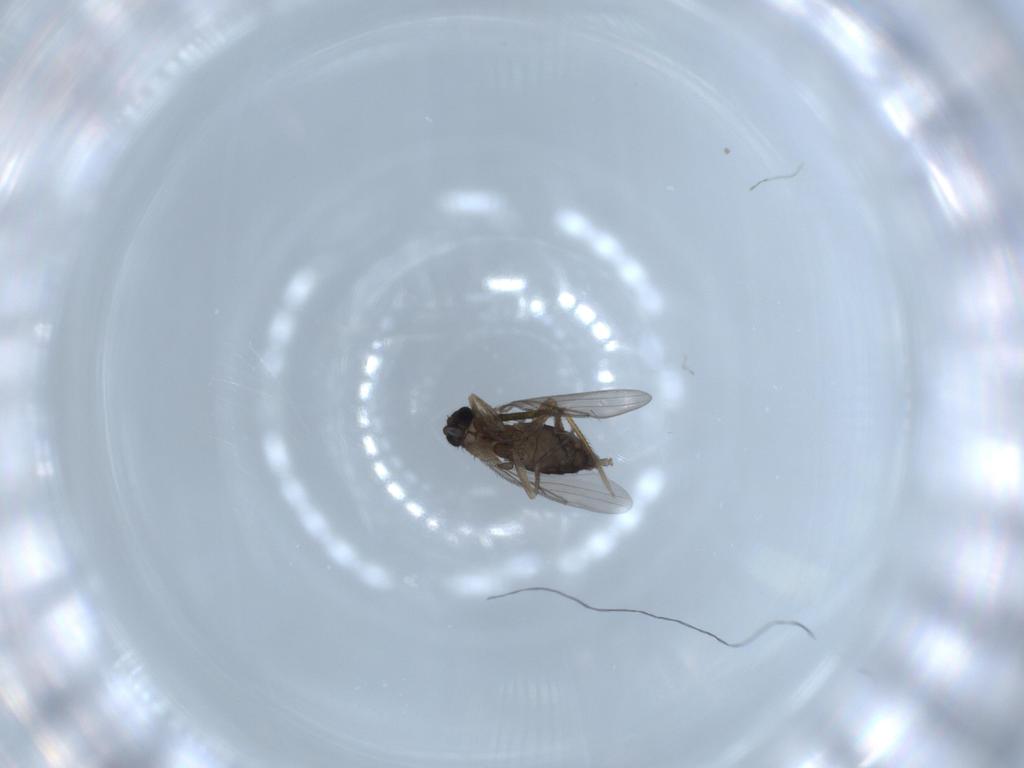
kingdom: Animalia
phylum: Arthropoda
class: Insecta
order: Diptera
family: Phoridae
